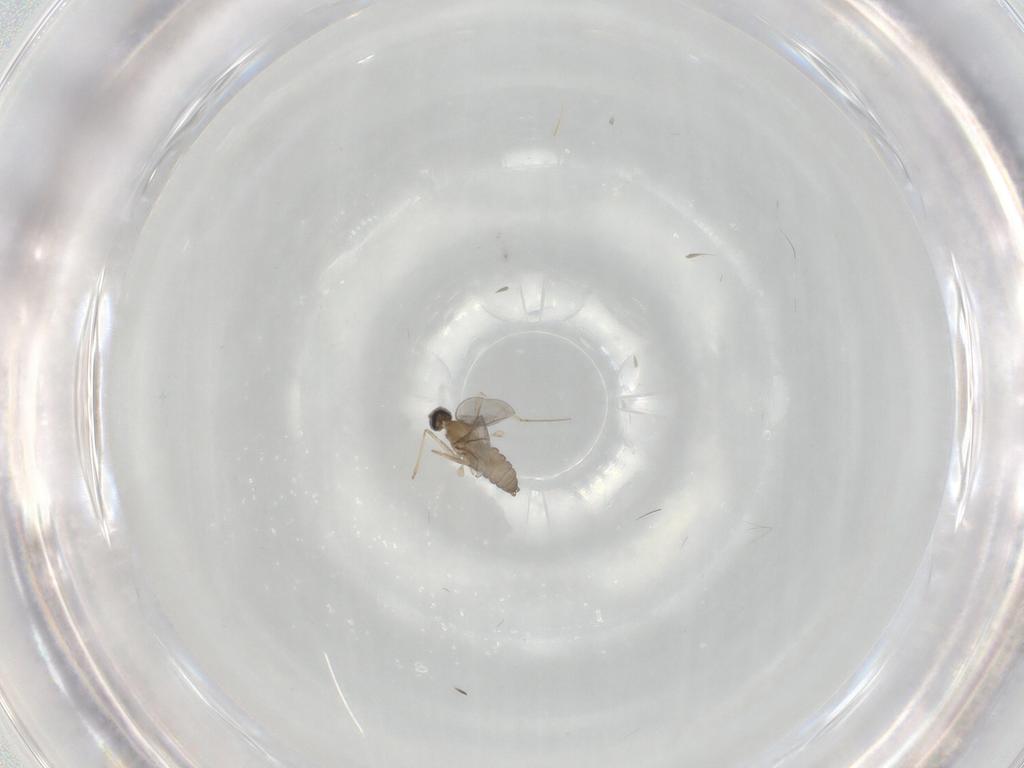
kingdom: Animalia
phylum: Arthropoda
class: Insecta
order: Diptera
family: Chironomidae
